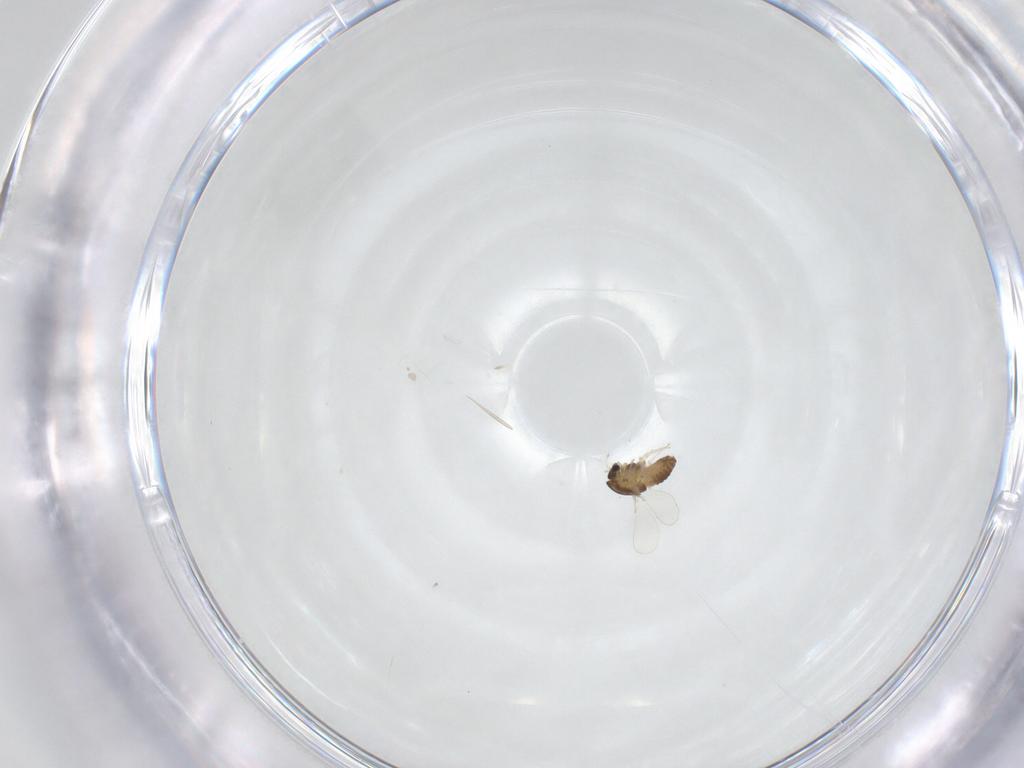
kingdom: Animalia
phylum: Arthropoda
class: Insecta
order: Diptera
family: Chironomidae
